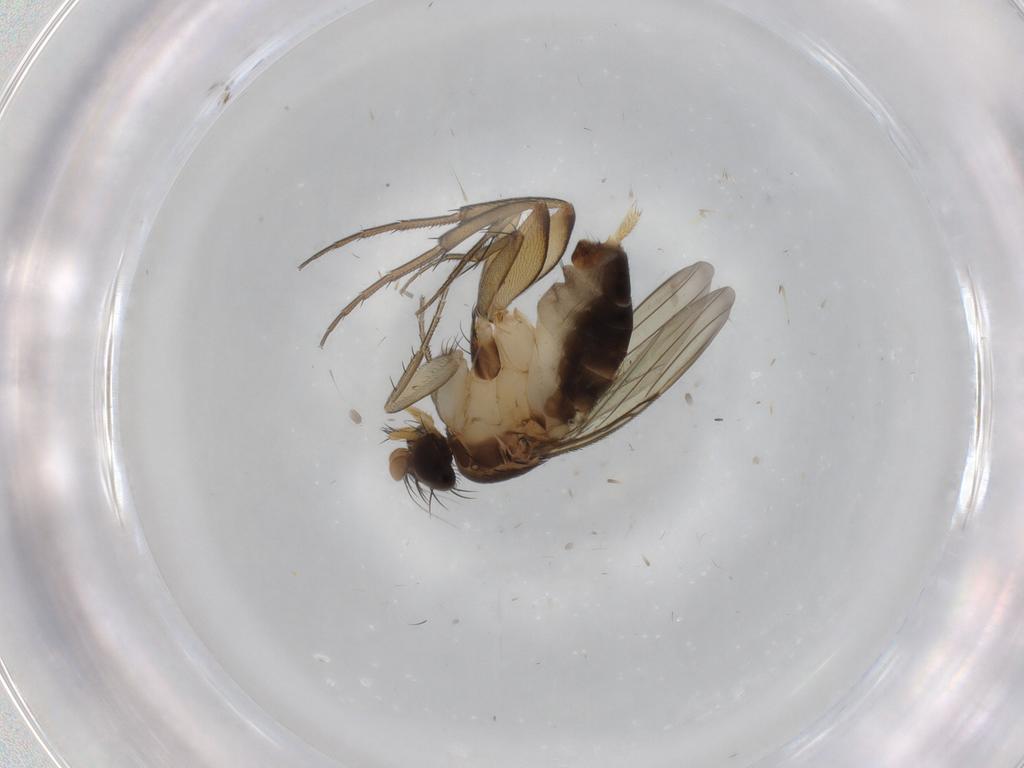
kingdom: Animalia
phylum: Arthropoda
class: Insecta
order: Diptera
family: Phoridae
